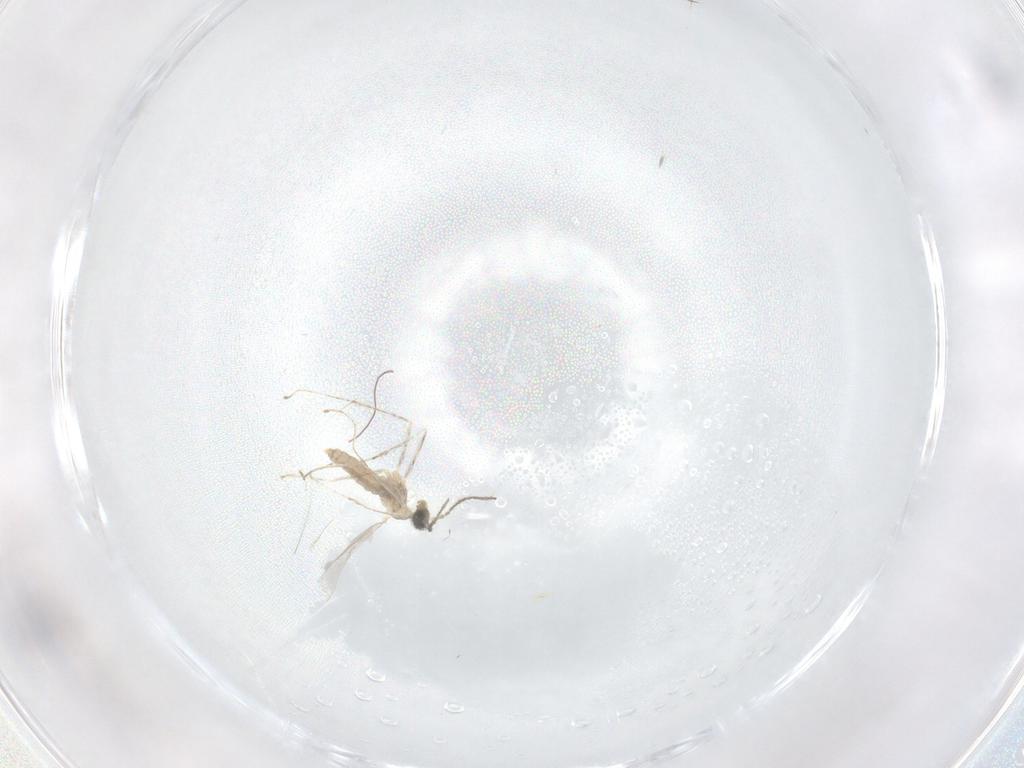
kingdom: Animalia
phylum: Arthropoda
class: Insecta
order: Diptera
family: Cecidomyiidae
